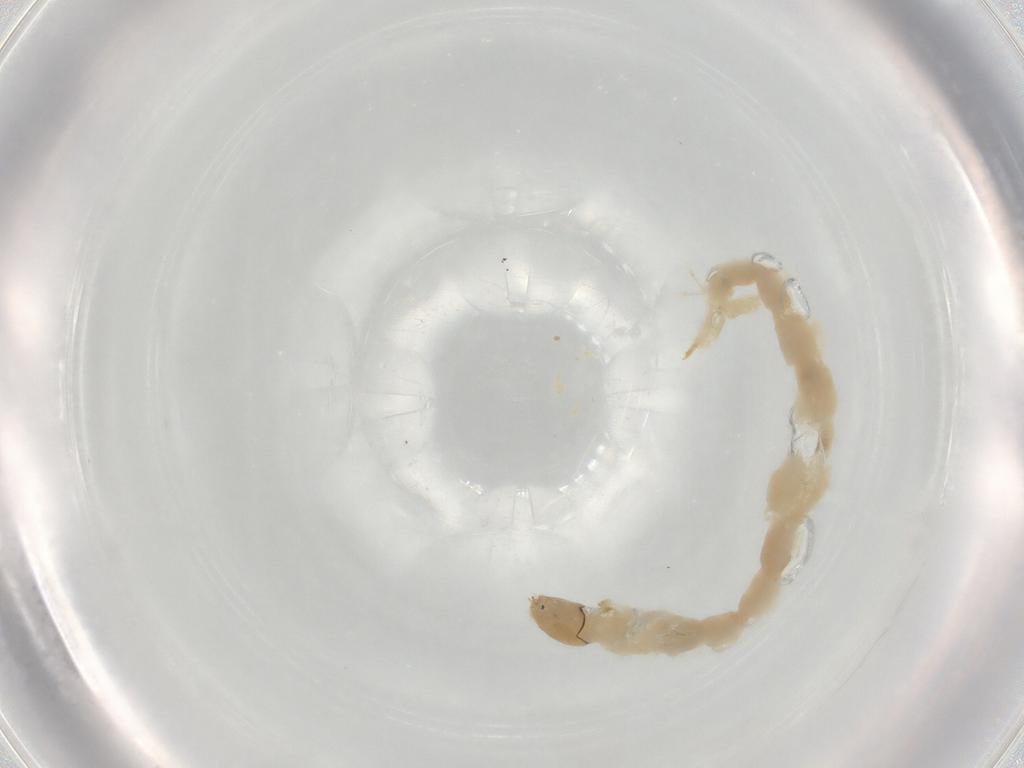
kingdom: Animalia
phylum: Arthropoda
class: Insecta
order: Diptera
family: Chironomidae
